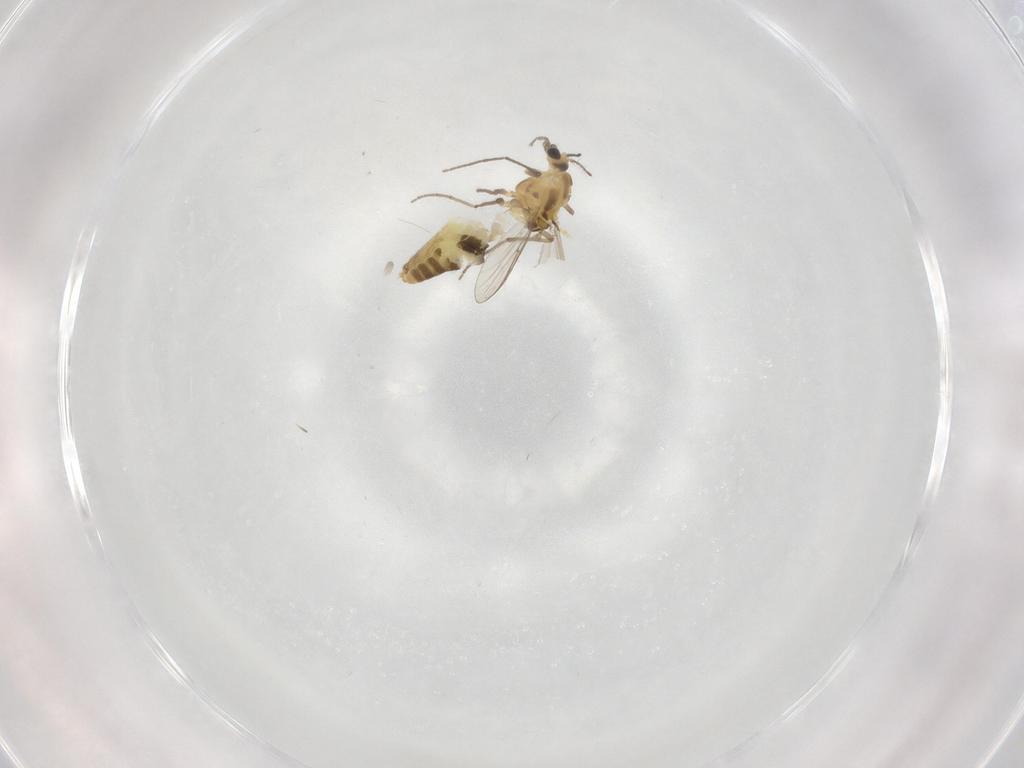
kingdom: Animalia
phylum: Arthropoda
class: Insecta
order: Diptera
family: Chironomidae
